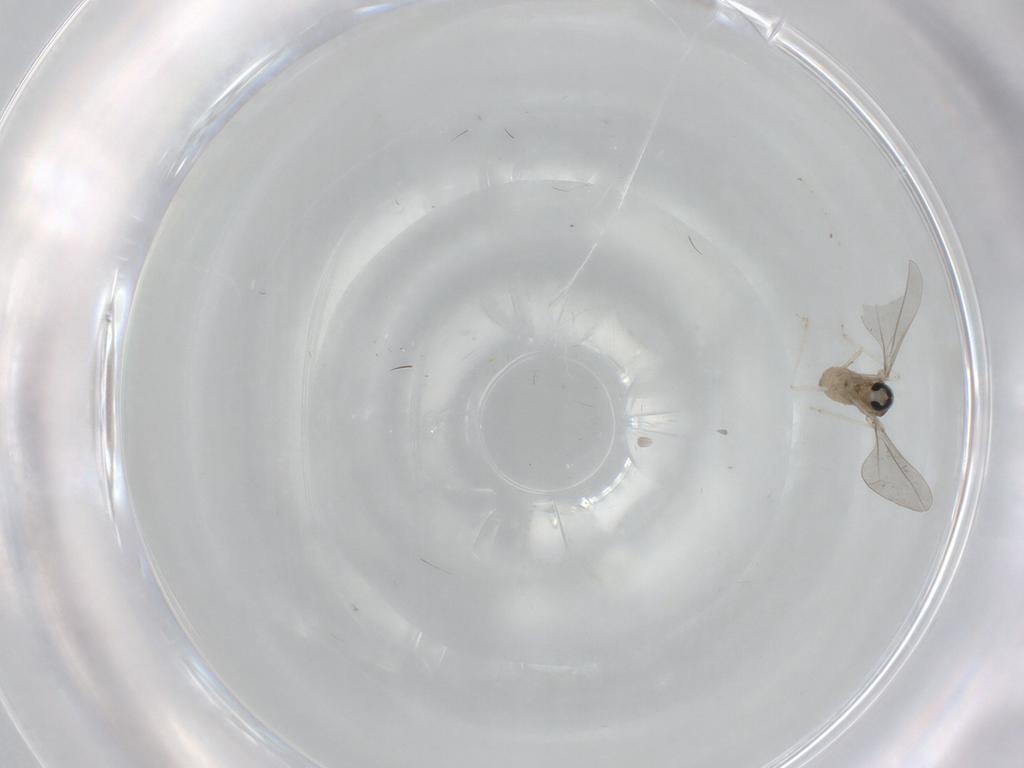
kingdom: Animalia
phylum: Arthropoda
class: Insecta
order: Diptera
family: Cecidomyiidae
